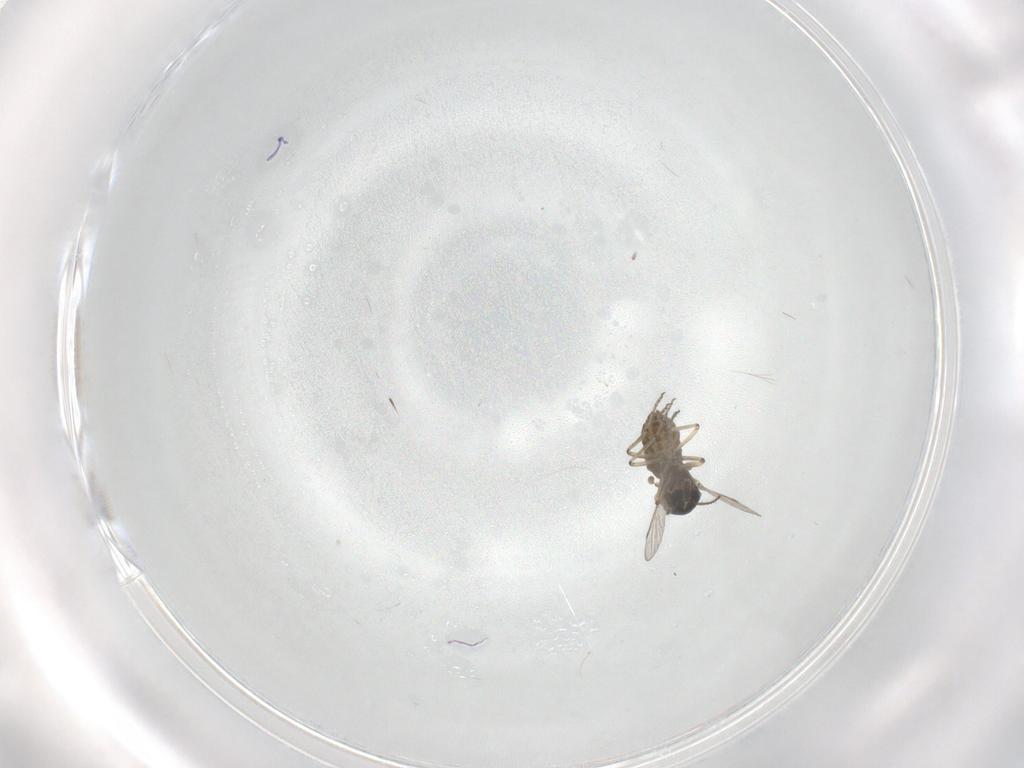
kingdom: Animalia
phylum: Arthropoda
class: Insecta
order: Diptera
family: Ceratopogonidae
